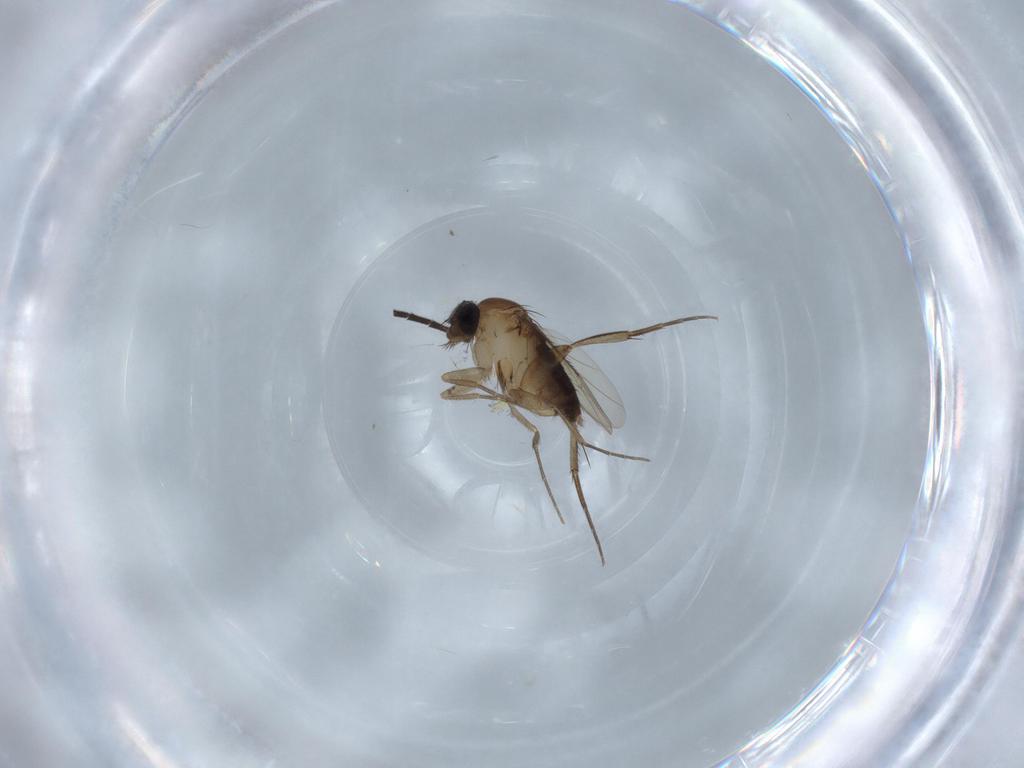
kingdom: Animalia
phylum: Arthropoda
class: Insecta
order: Diptera
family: Phoridae
